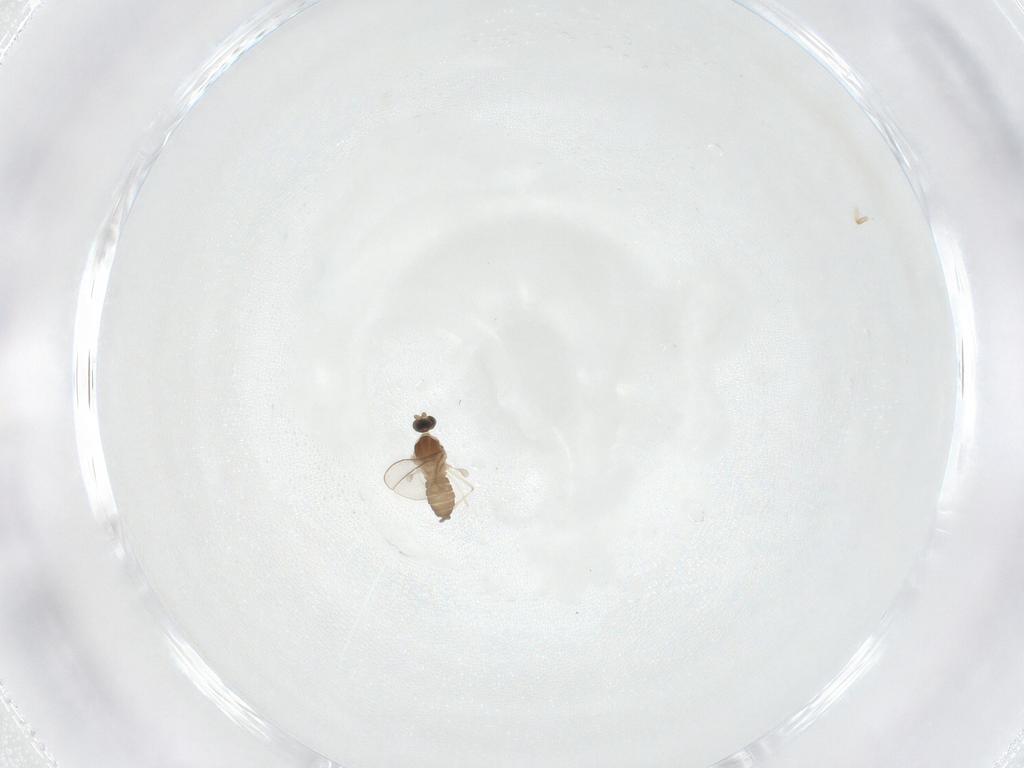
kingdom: Animalia
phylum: Arthropoda
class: Insecta
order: Diptera
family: Cecidomyiidae
